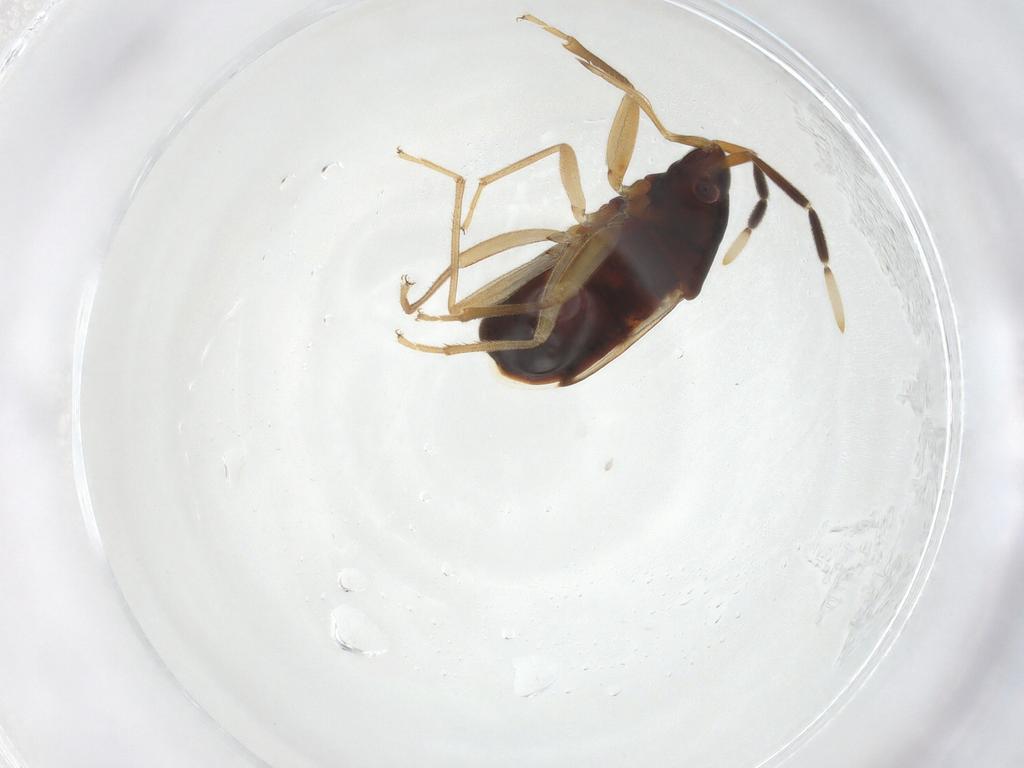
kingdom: Animalia
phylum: Arthropoda
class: Insecta
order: Hemiptera
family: Rhyparochromidae
